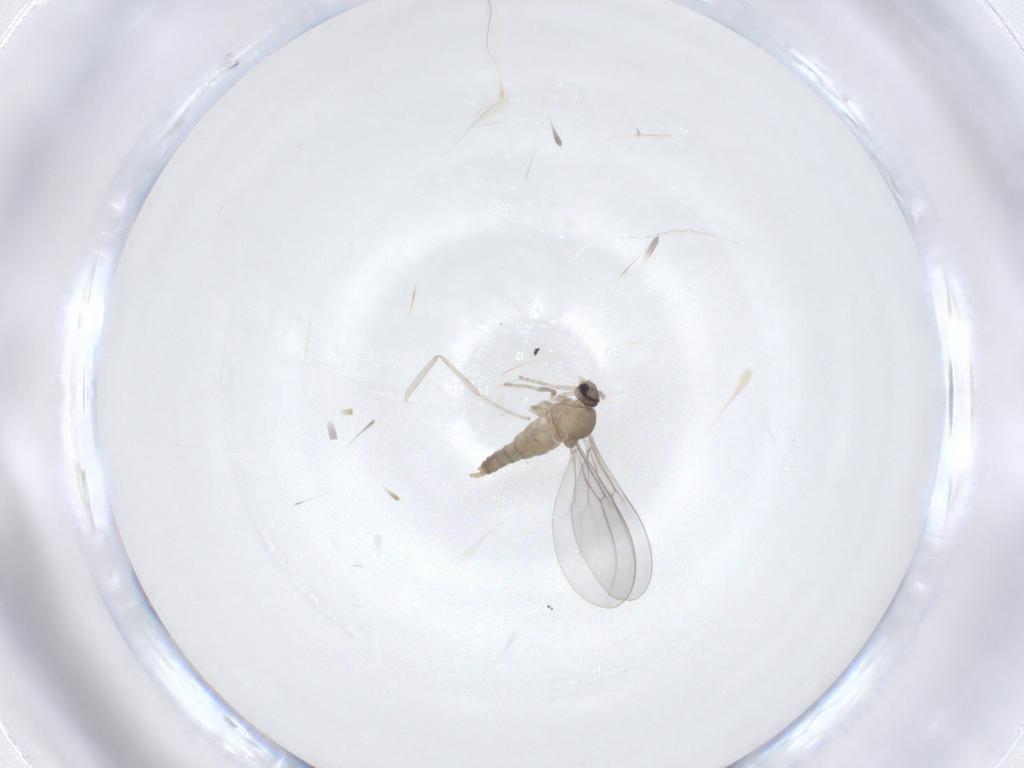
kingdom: Animalia
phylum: Arthropoda
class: Insecta
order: Diptera
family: Cecidomyiidae
